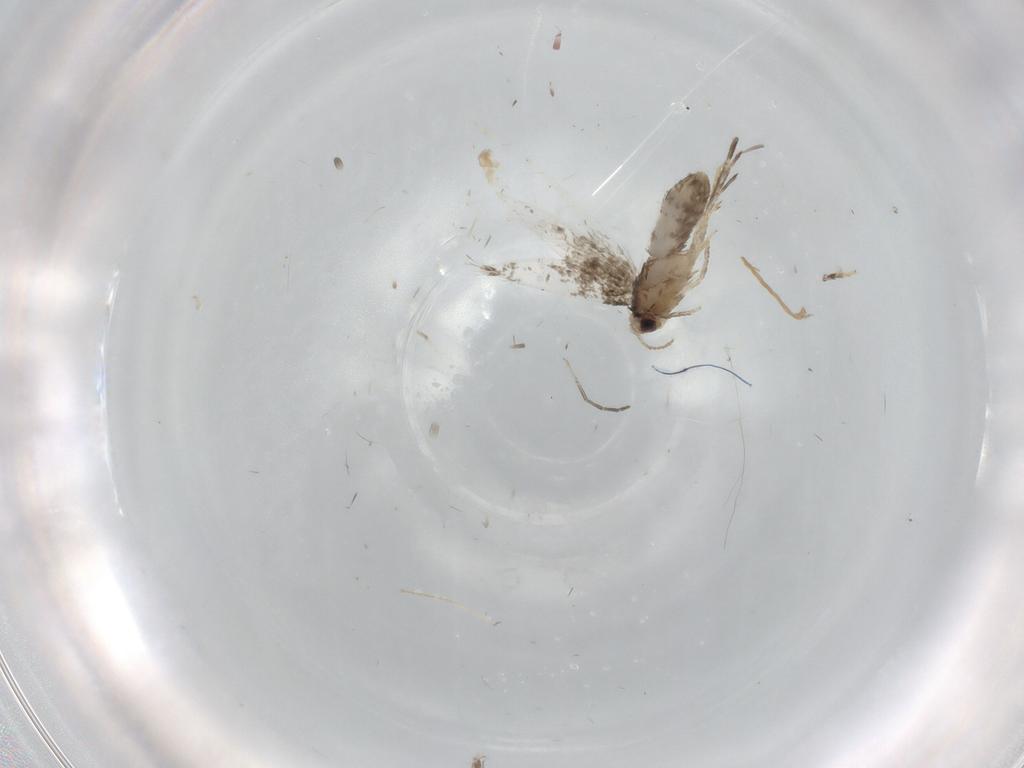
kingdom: Animalia
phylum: Arthropoda
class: Insecta
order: Lepidoptera
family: Nepticulidae
